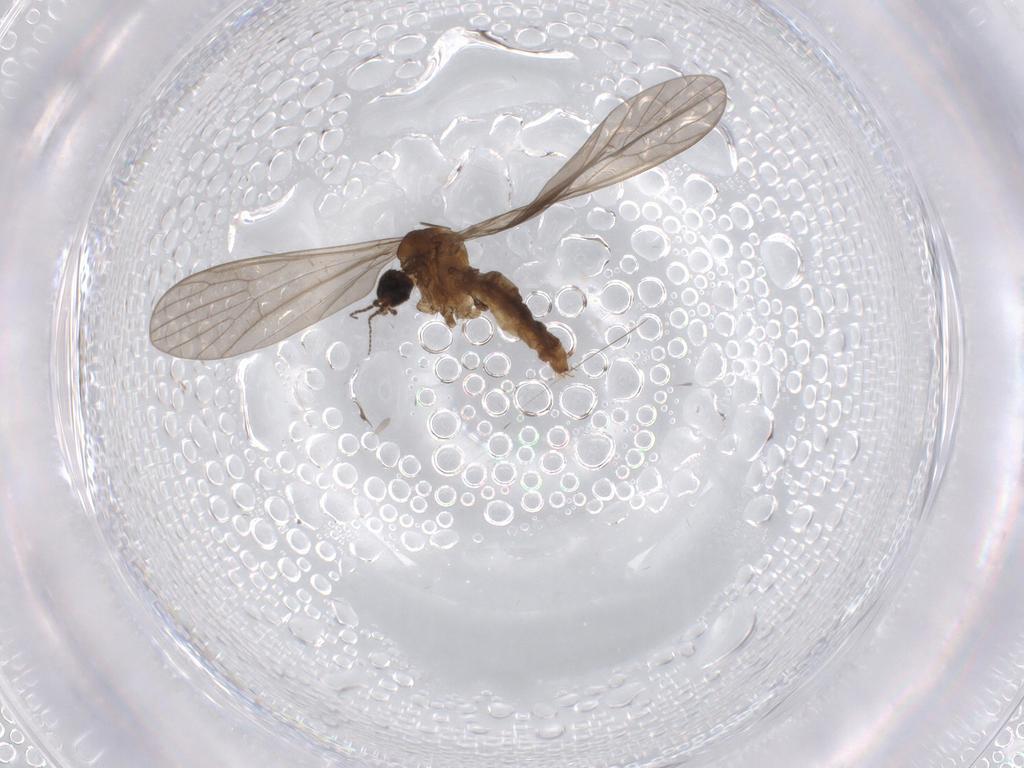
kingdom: Animalia
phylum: Arthropoda
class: Insecta
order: Diptera
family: Limoniidae
